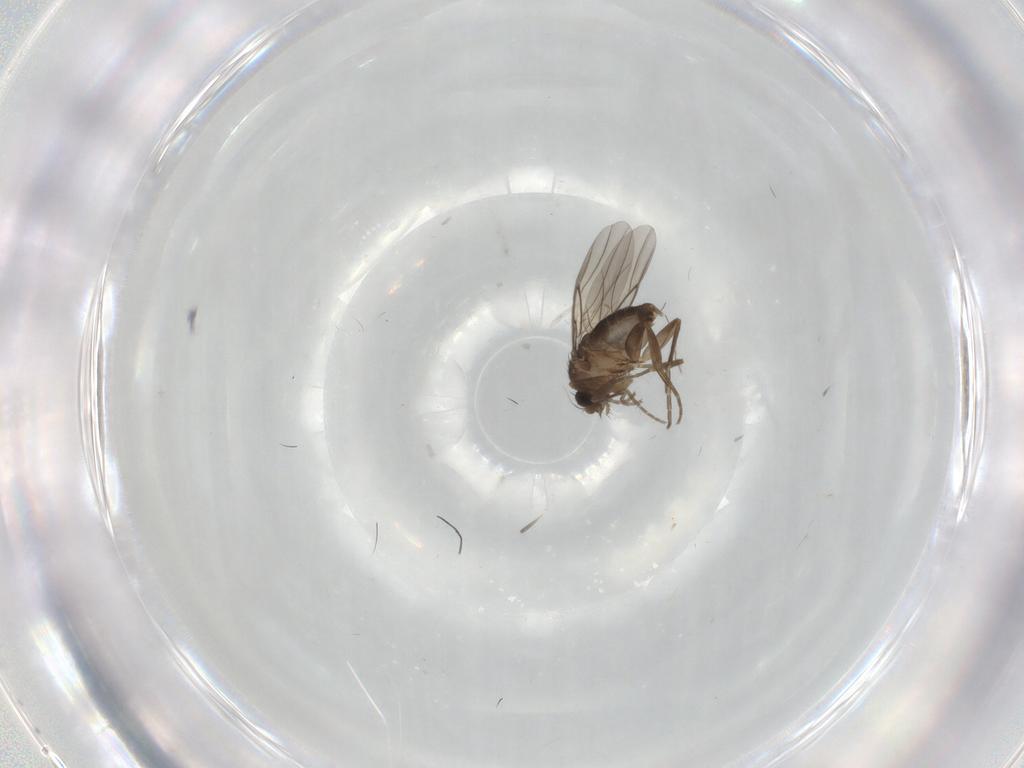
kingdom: Animalia
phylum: Arthropoda
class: Insecta
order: Diptera
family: Phoridae
